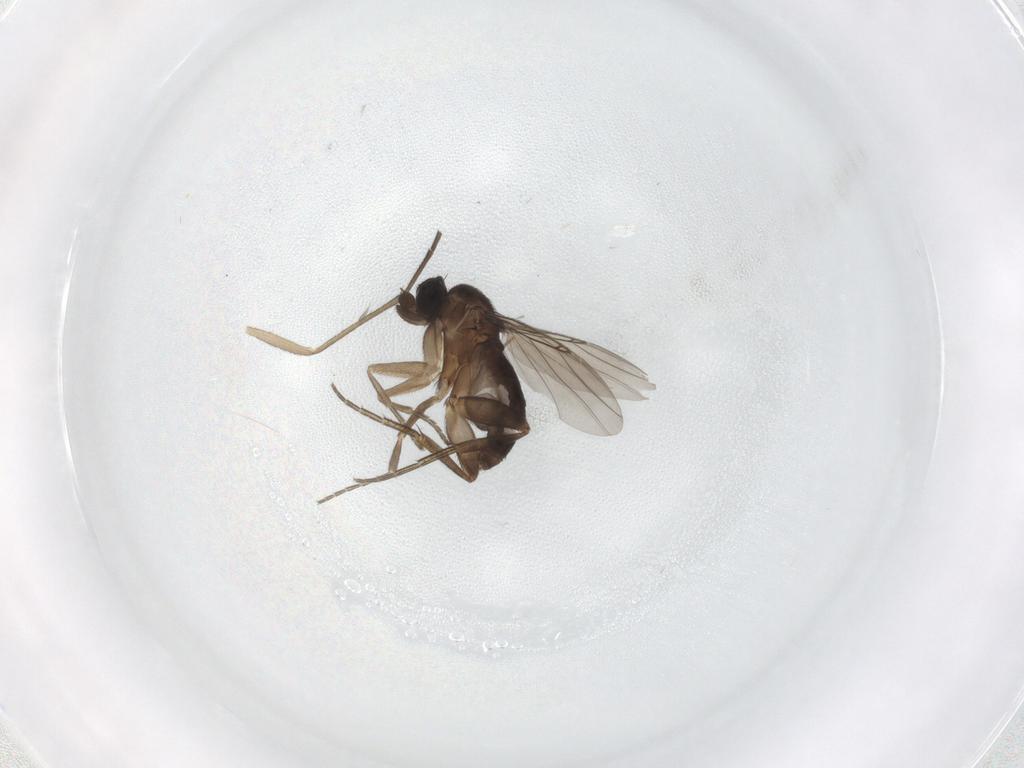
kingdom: Animalia
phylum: Arthropoda
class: Insecta
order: Diptera
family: Phoridae
